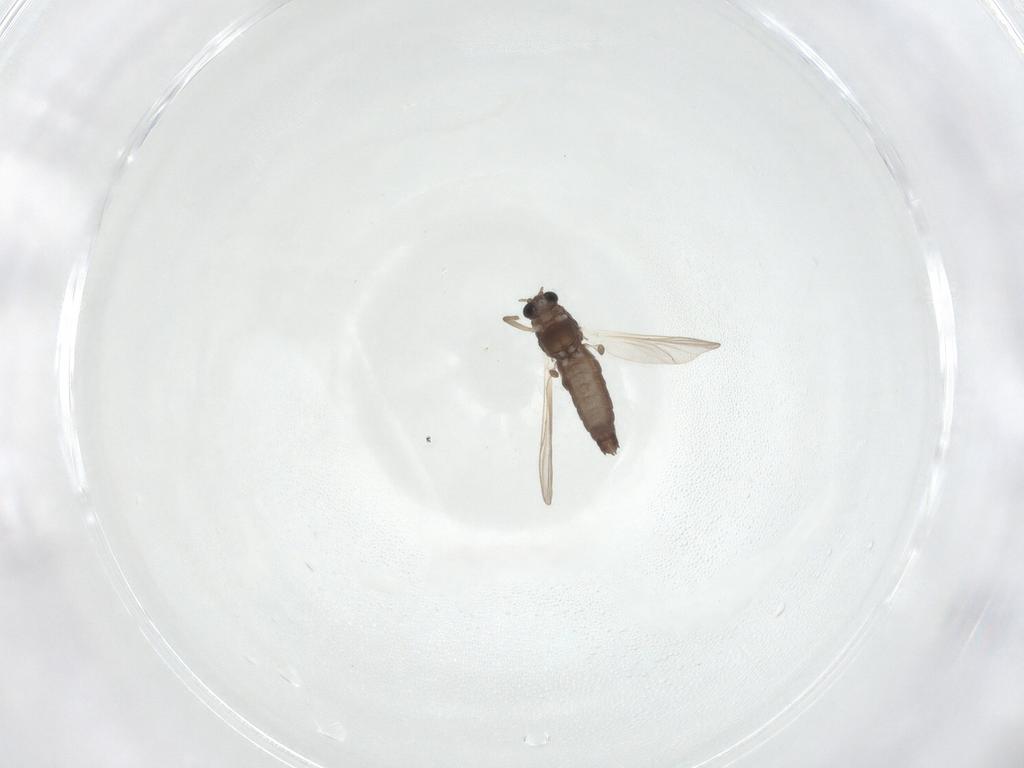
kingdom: Animalia
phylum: Arthropoda
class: Insecta
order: Diptera
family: Chironomidae
